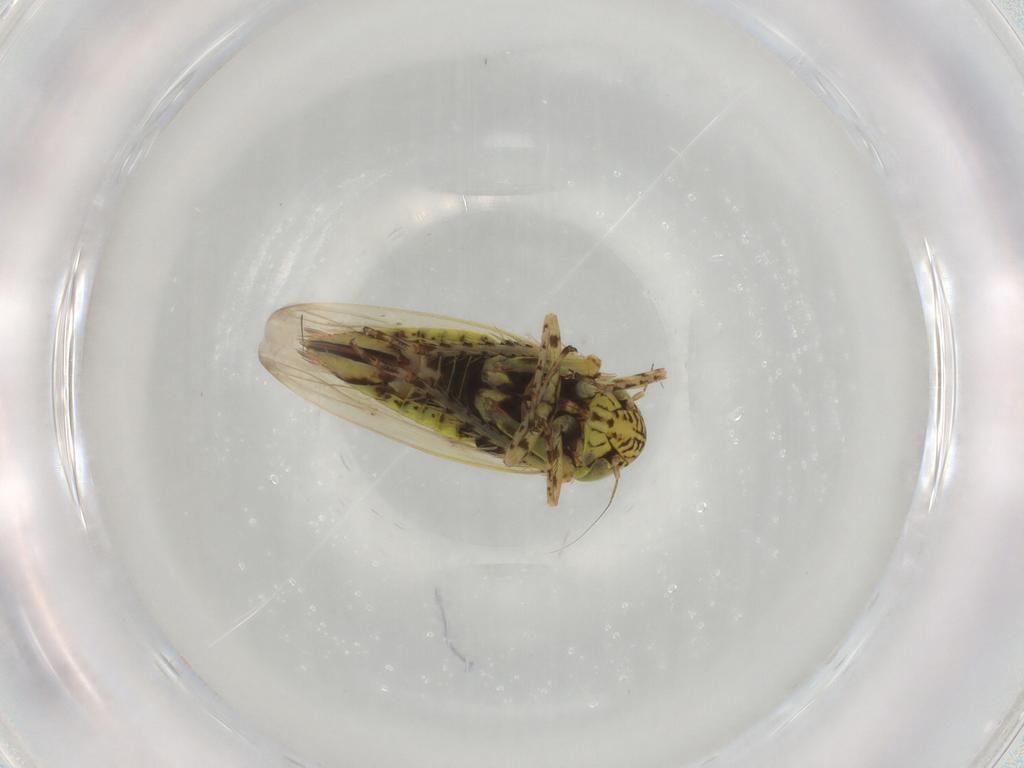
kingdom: Animalia
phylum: Arthropoda
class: Insecta
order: Hemiptera
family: Cicadellidae
